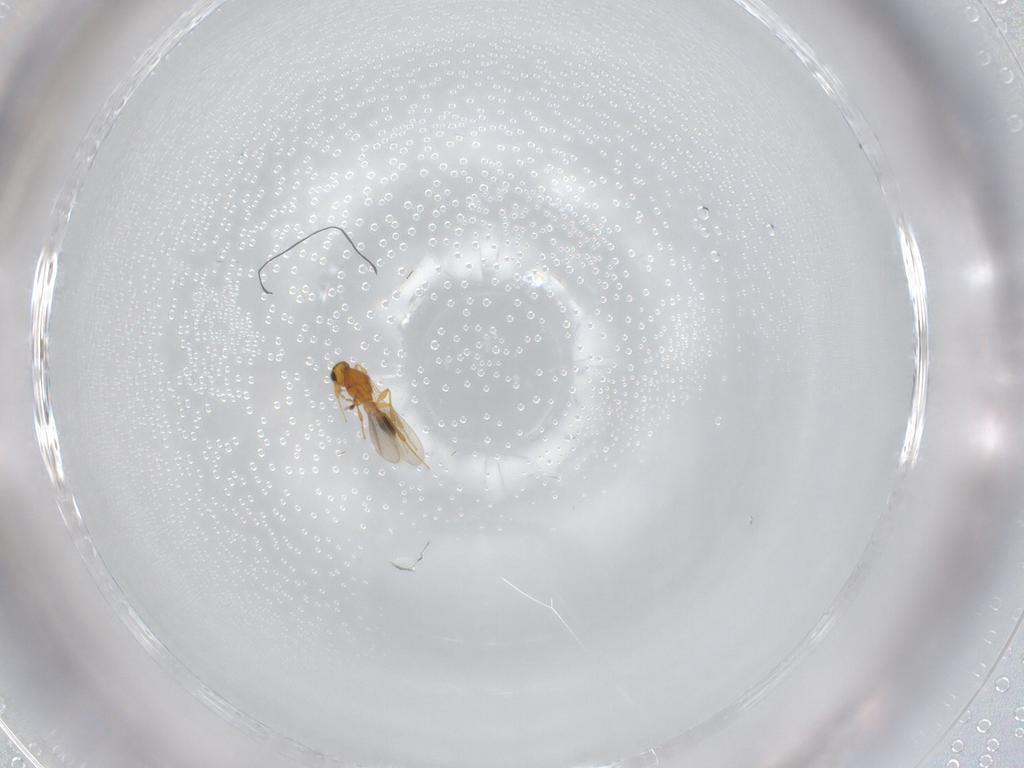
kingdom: Animalia
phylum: Arthropoda
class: Insecta
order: Hymenoptera
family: Platygastridae
